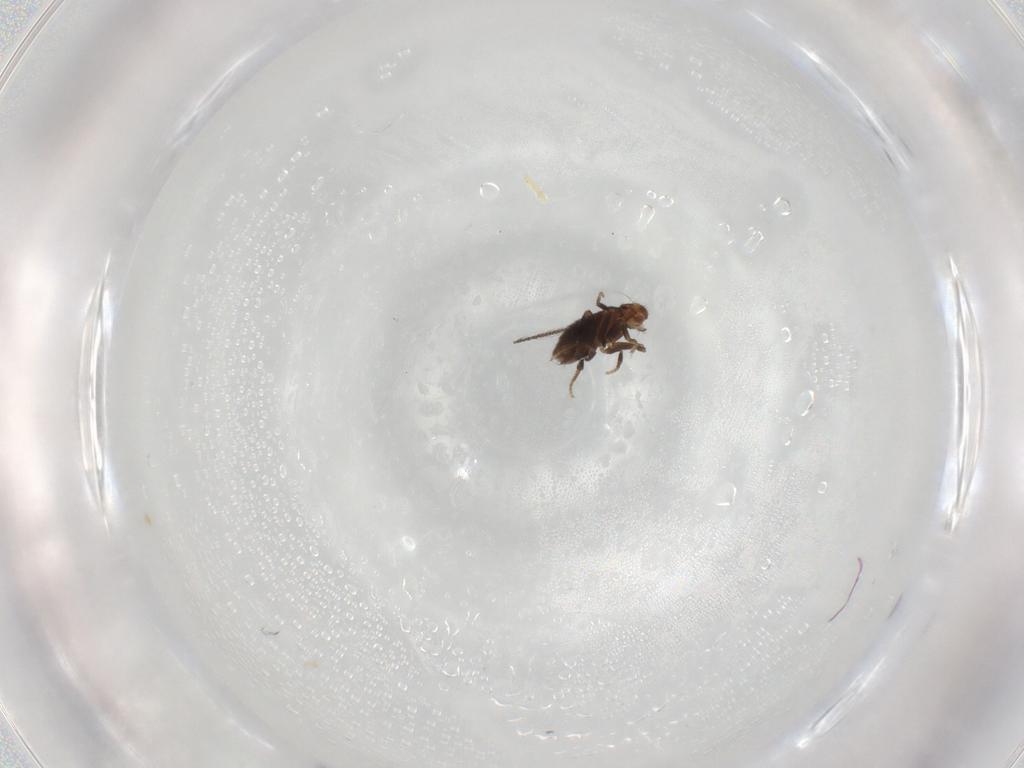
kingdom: Animalia
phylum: Arthropoda
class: Insecta
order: Diptera
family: Phoridae
